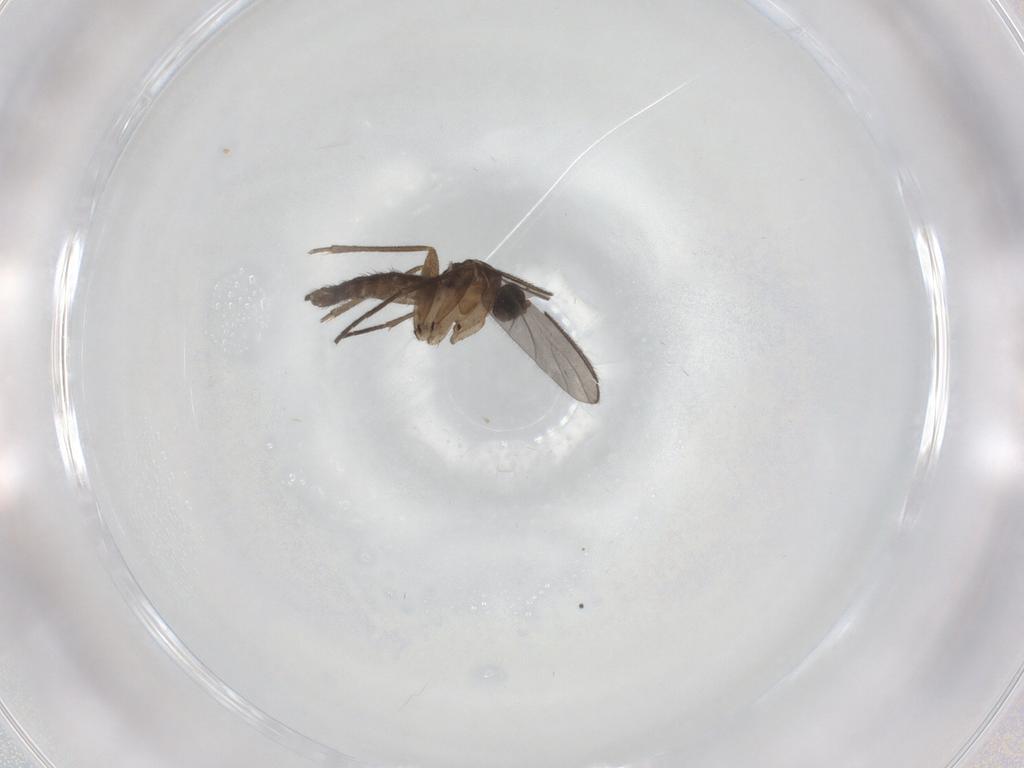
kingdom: Animalia
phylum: Arthropoda
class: Insecta
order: Diptera
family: Sciaridae
